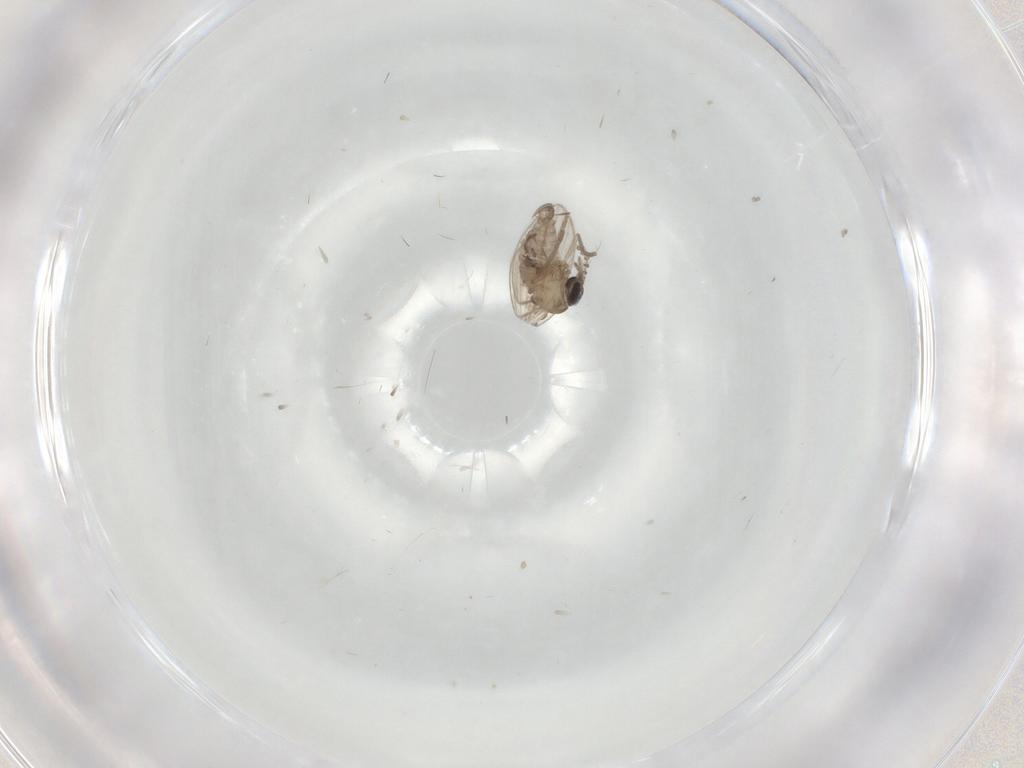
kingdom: Animalia
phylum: Arthropoda
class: Insecta
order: Diptera
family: Psychodidae
